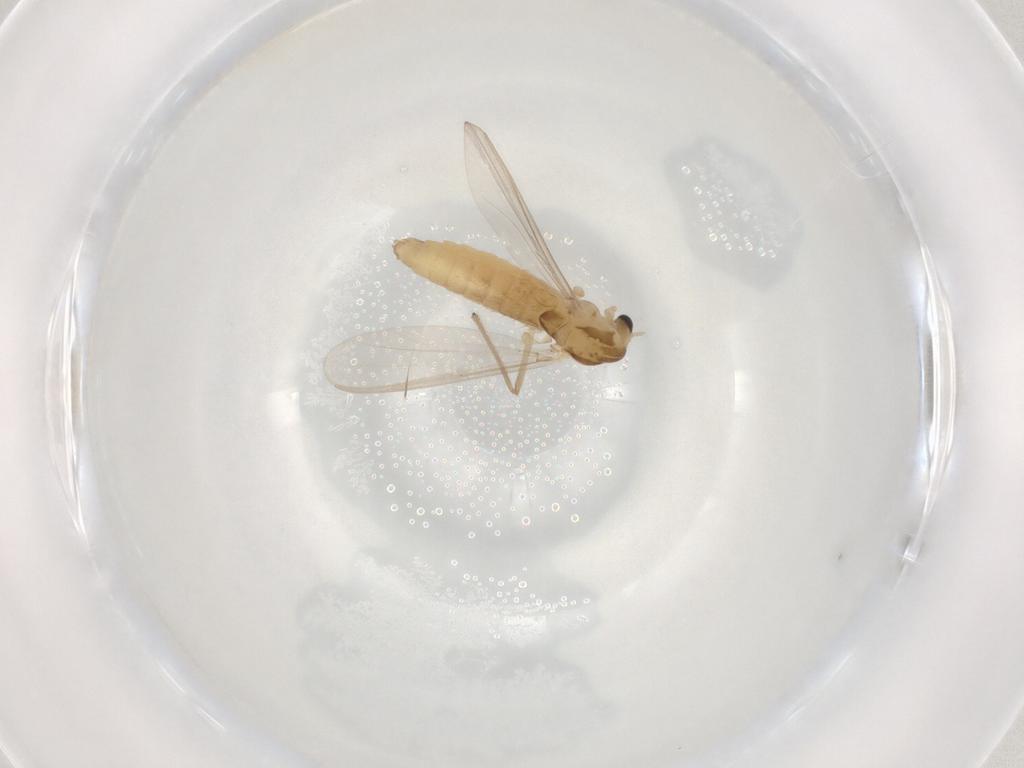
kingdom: Animalia
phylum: Arthropoda
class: Insecta
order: Diptera
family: Chironomidae
